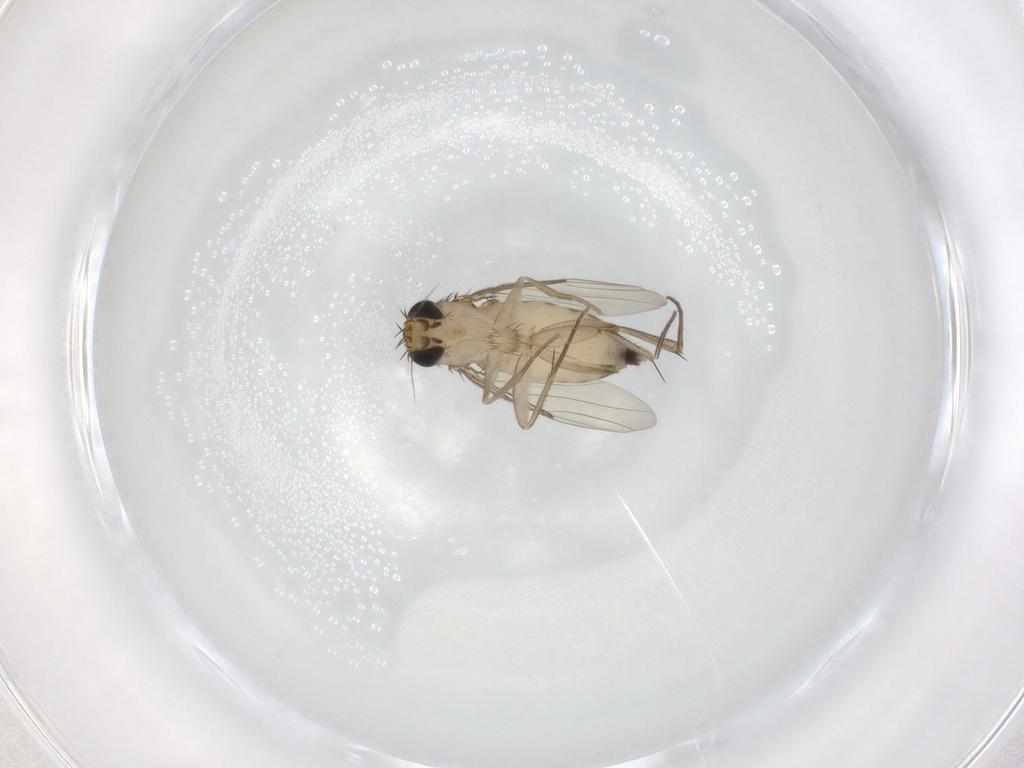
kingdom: Animalia
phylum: Arthropoda
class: Insecta
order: Diptera
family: Phoridae
